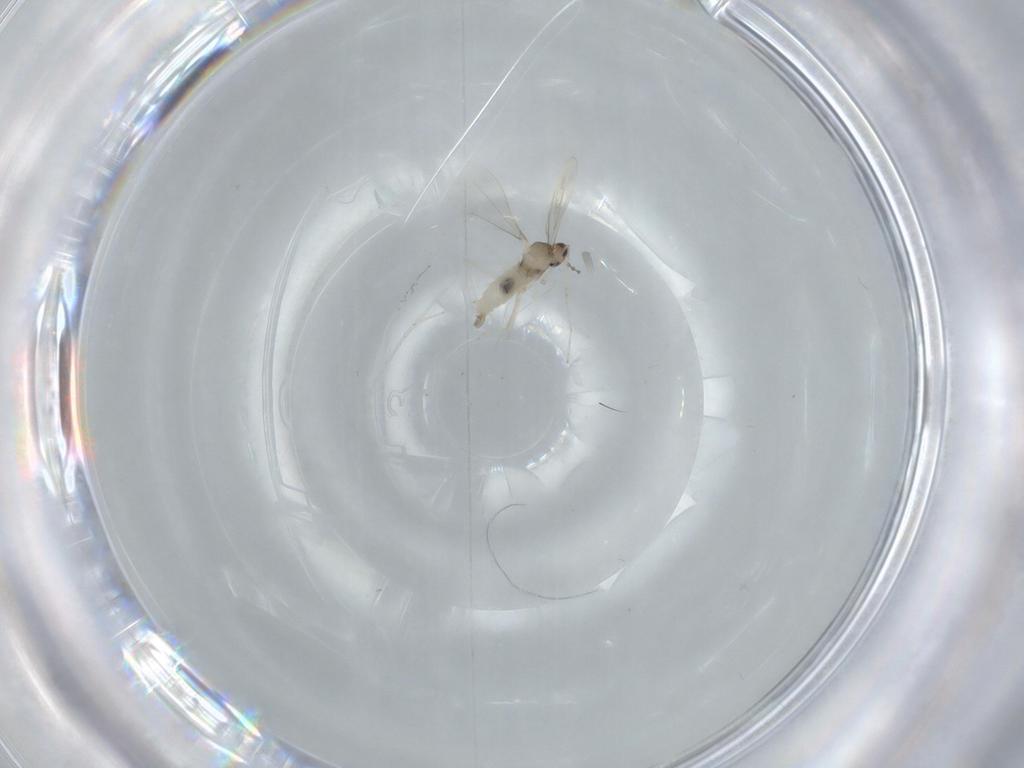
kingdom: Animalia
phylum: Arthropoda
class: Insecta
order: Diptera
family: Cecidomyiidae
